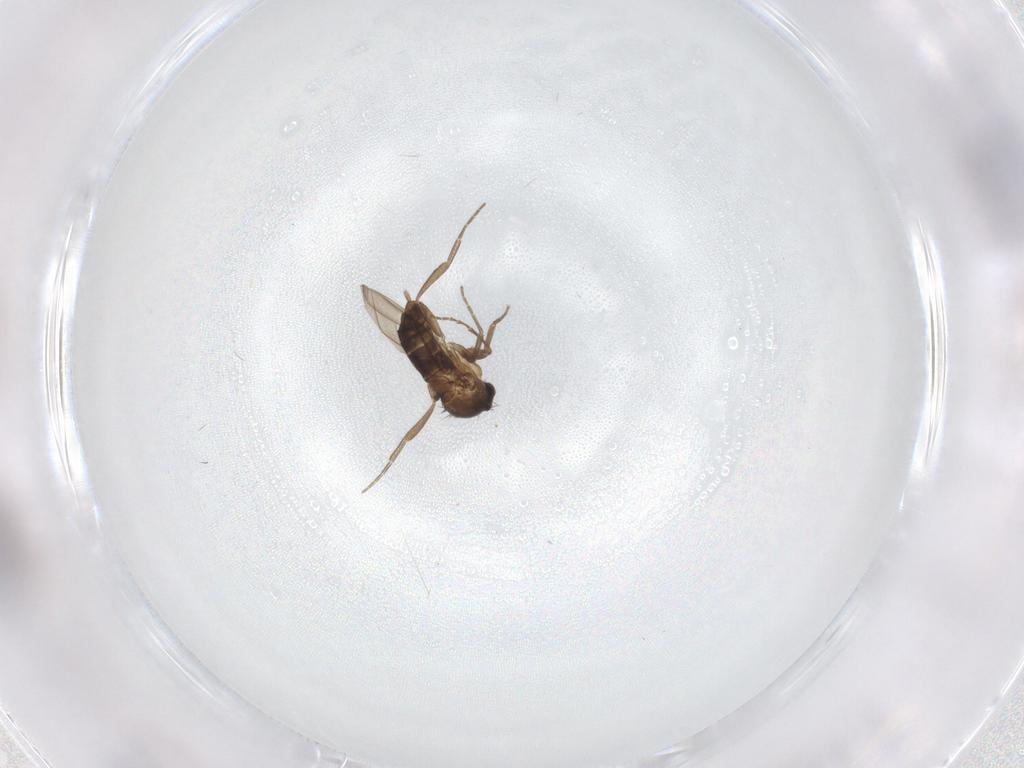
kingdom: Animalia
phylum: Arthropoda
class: Insecta
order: Diptera
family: Phoridae
